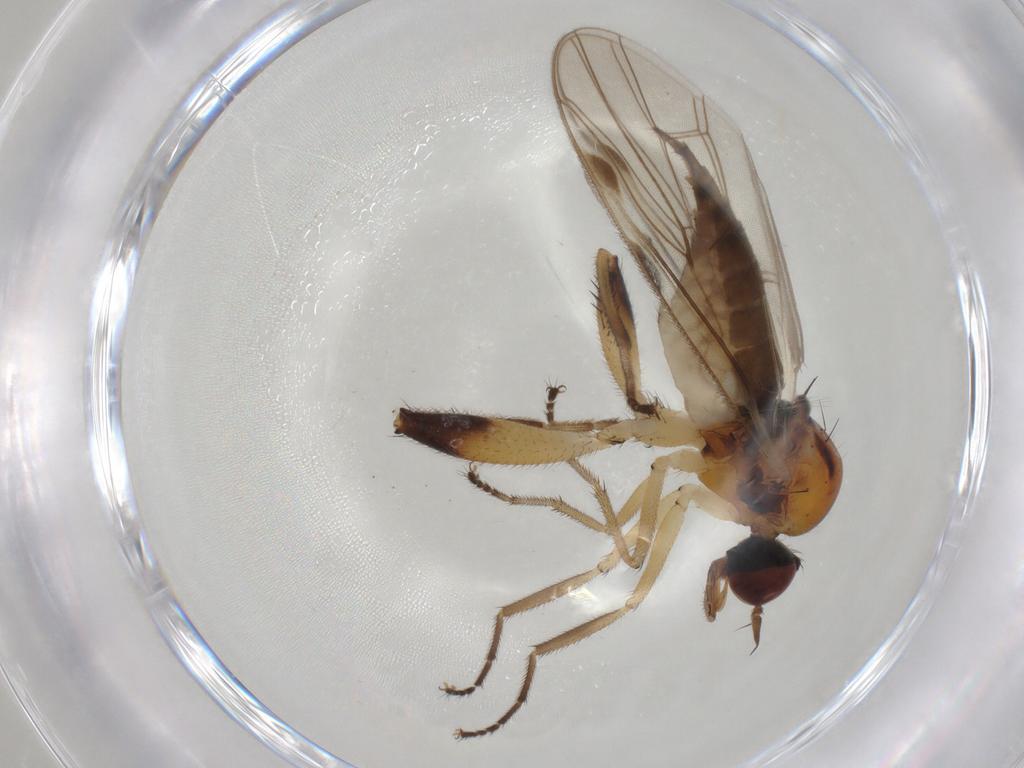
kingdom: Animalia
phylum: Arthropoda
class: Insecta
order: Diptera
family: Hybotidae
